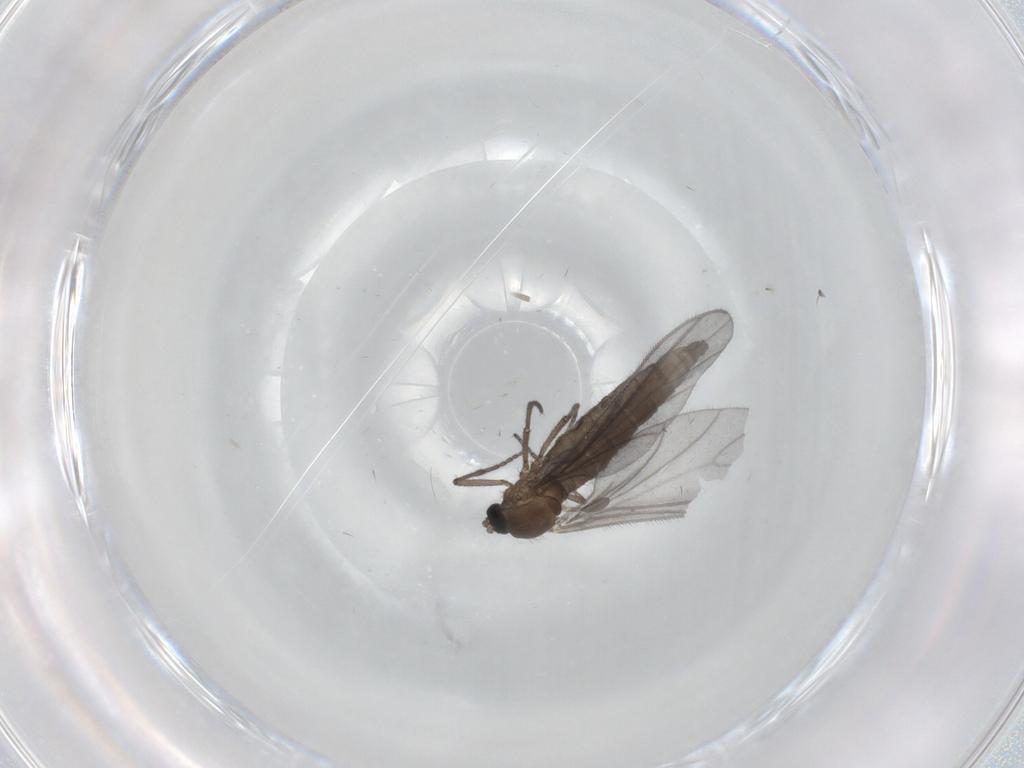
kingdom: Animalia
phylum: Arthropoda
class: Insecta
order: Diptera
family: Sciaridae
